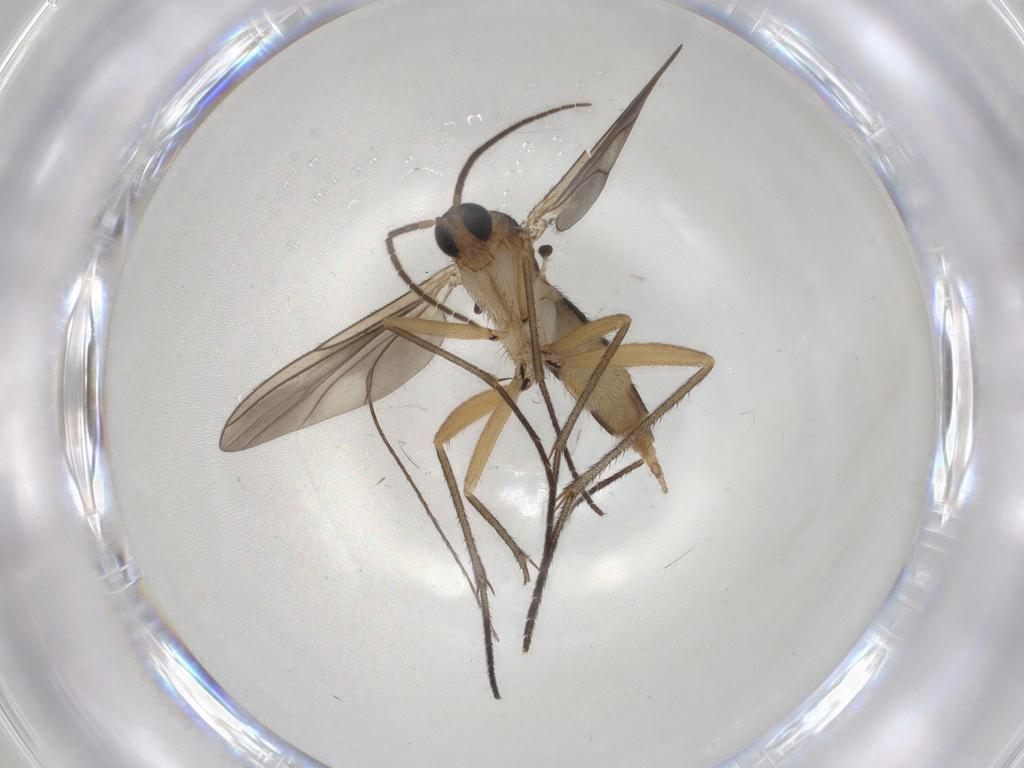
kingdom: Animalia
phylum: Arthropoda
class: Insecta
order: Diptera
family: Sciaridae
